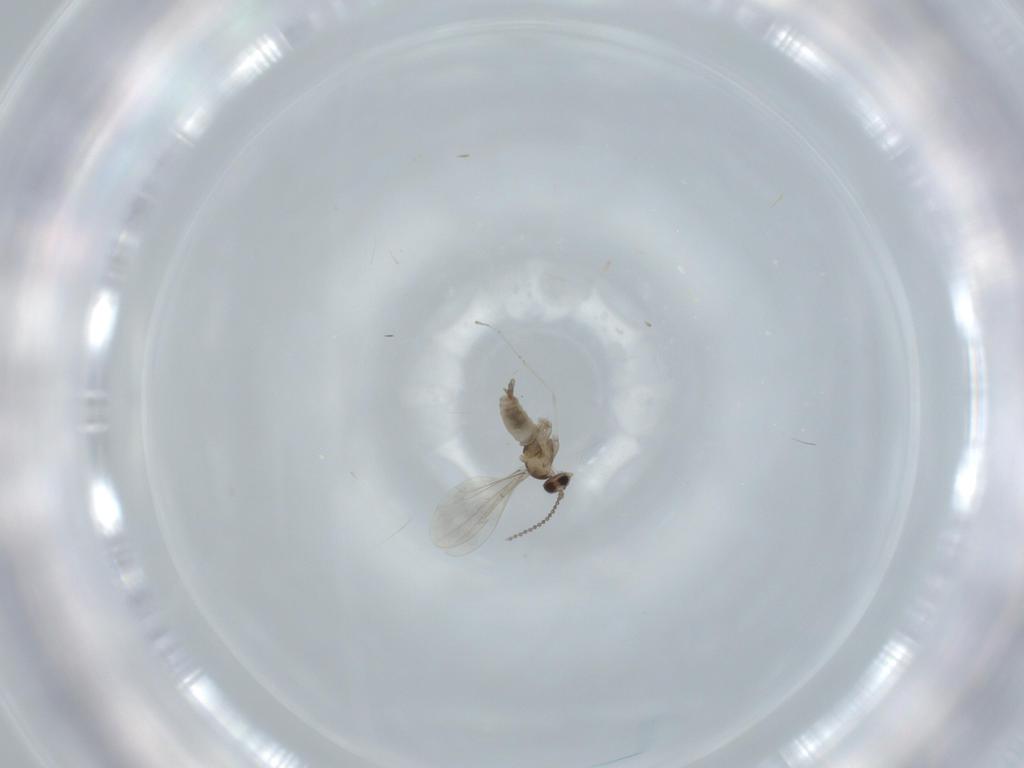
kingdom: Animalia
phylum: Arthropoda
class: Insecta
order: Diptera
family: Cecidomyiidae
